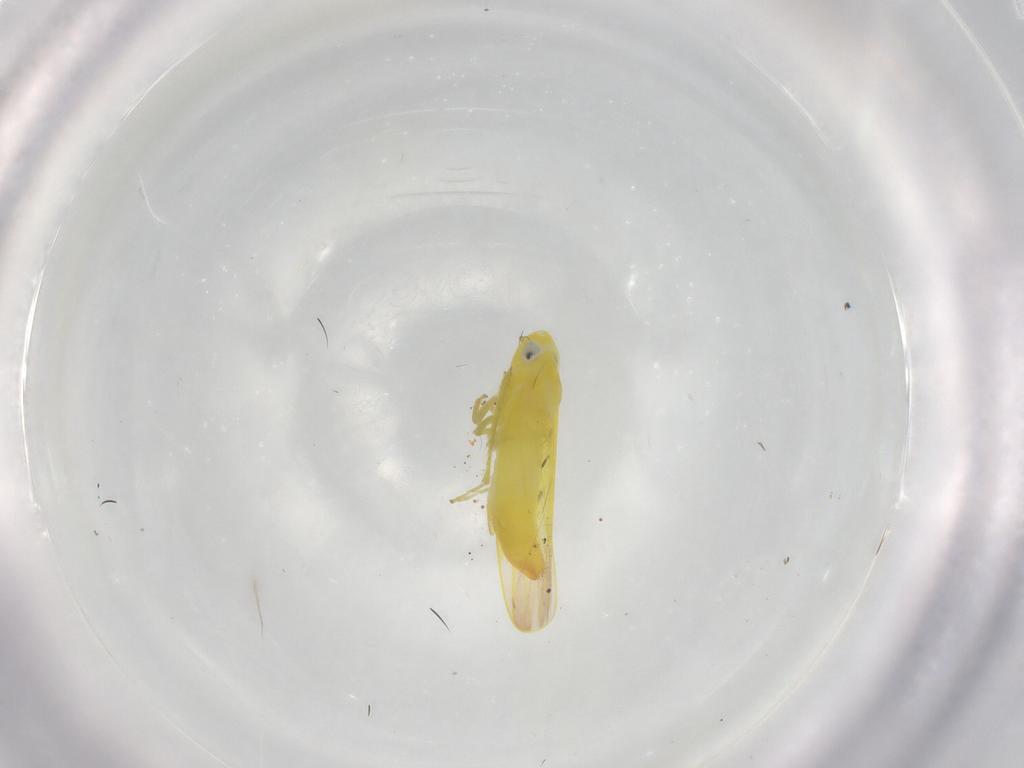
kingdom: Animalia
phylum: Arthropoda
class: Insecta
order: Hemiptera
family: Cicadellidae
